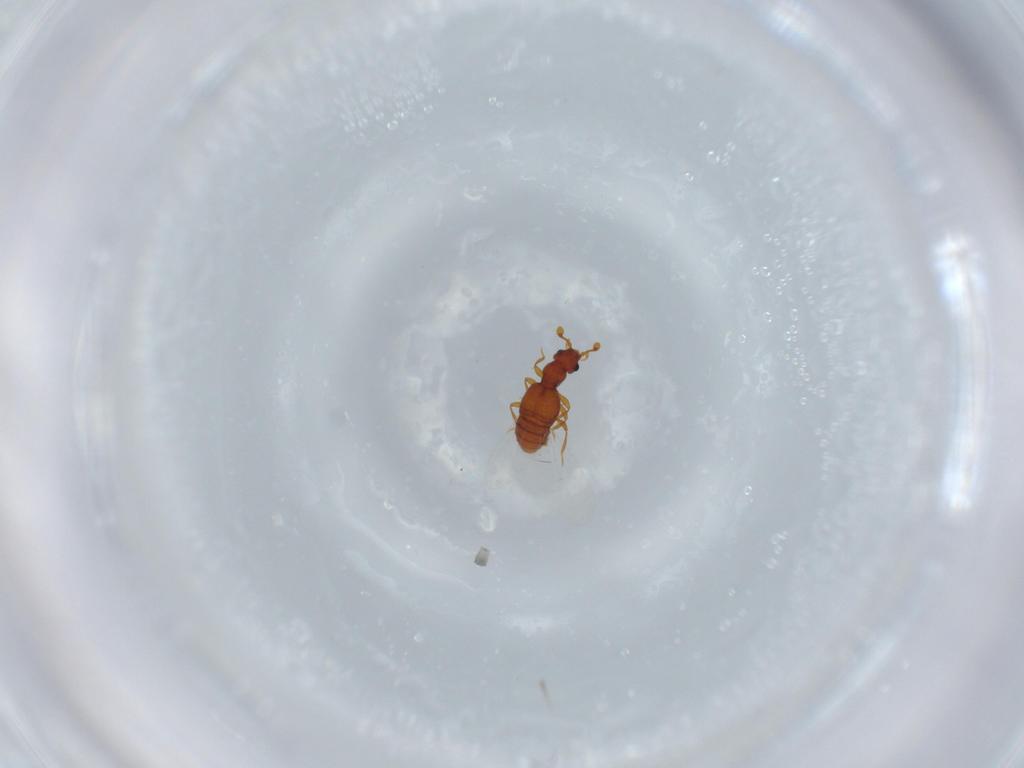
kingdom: Animalia
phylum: Arthropoda
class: Insecta
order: Coleoptera
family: Staphylinidae
